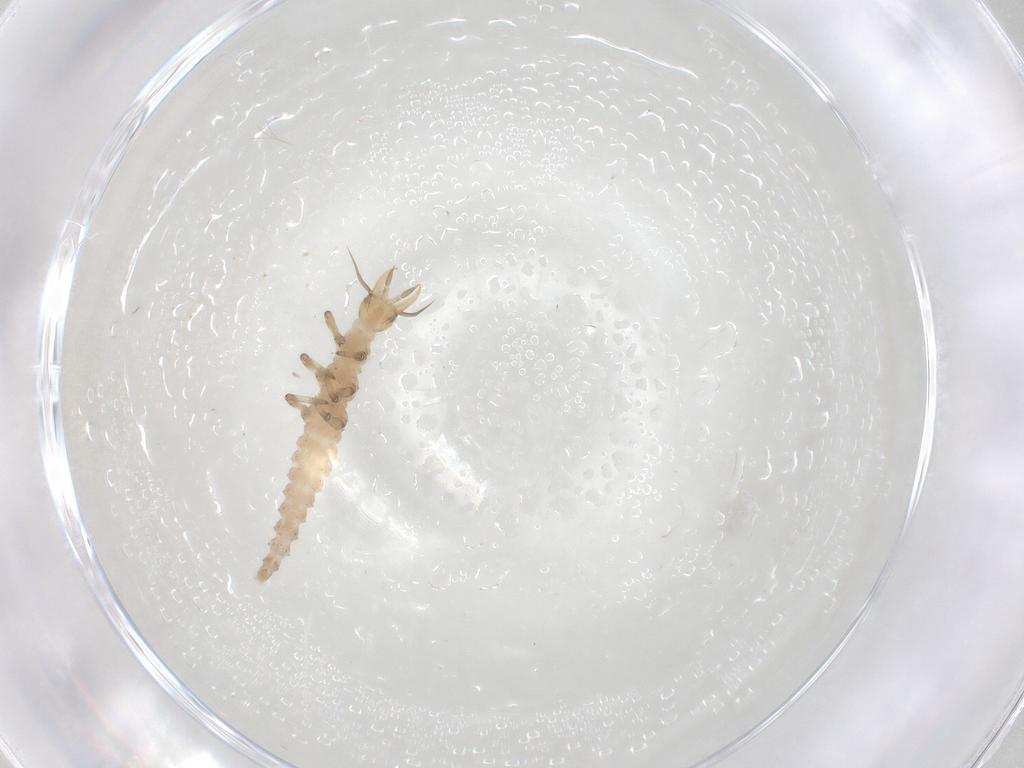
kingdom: Animalia
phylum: Arthropoda
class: Insecta
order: Neuroptera
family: Hemerobiidae
